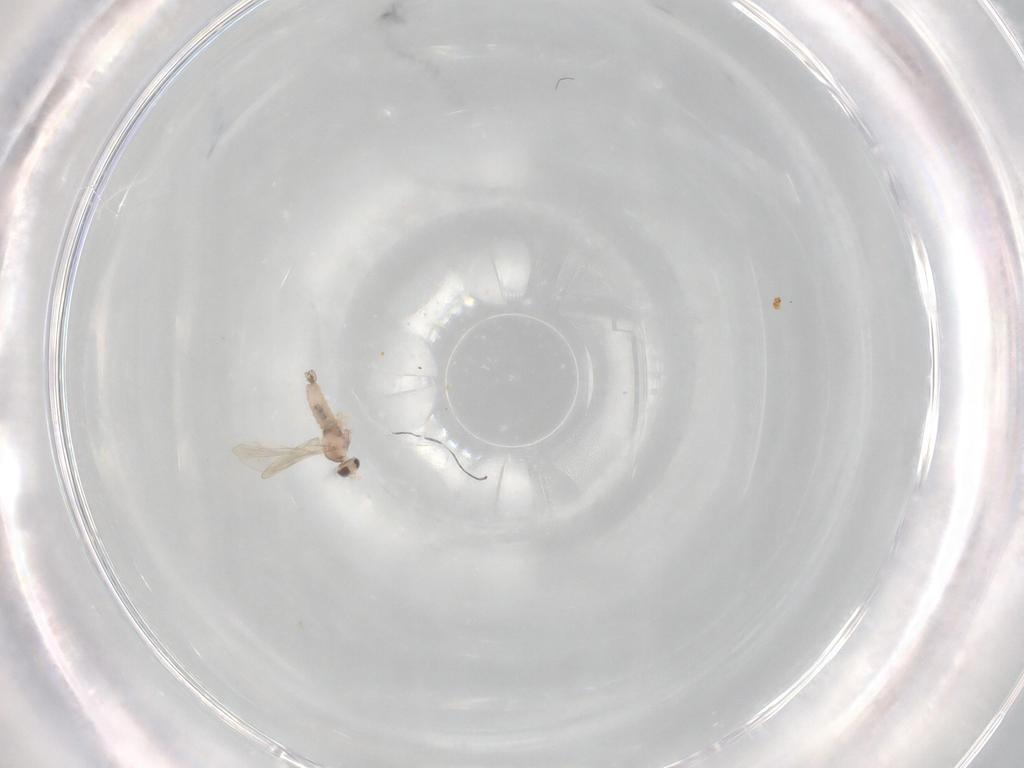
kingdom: Animalia
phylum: Arthropoda
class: Insecta
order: Diptera
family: Cecidomyiidae
